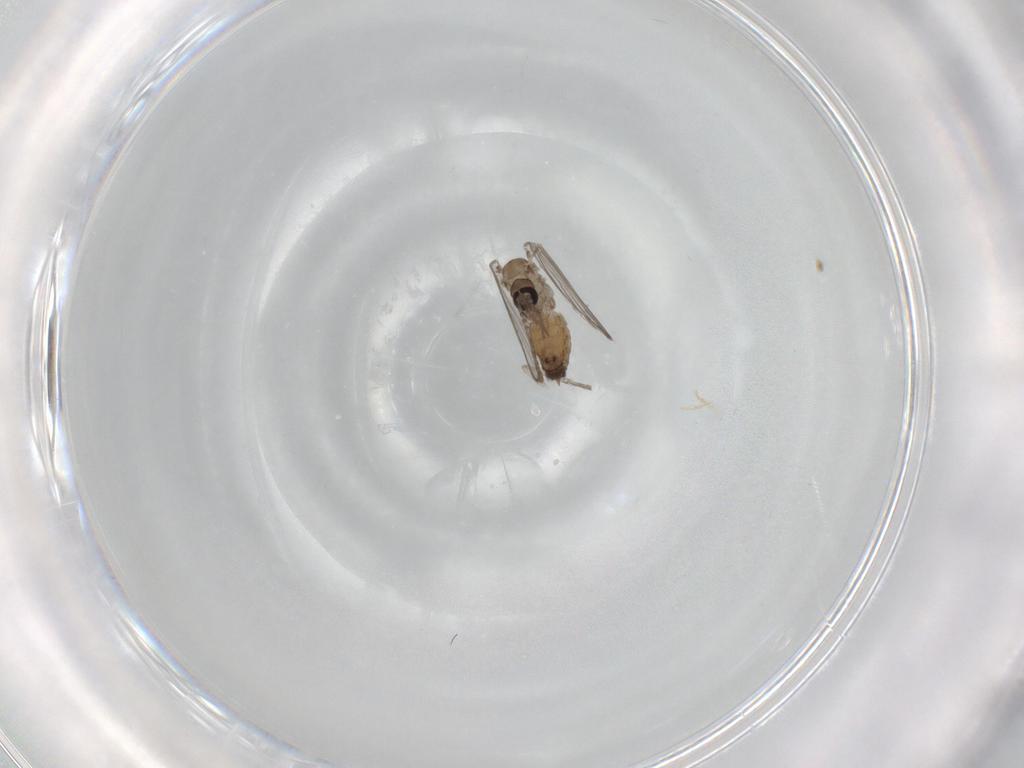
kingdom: Animalia
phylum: Arthropoda
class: Insecta
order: Diptera
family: Psychodidae
